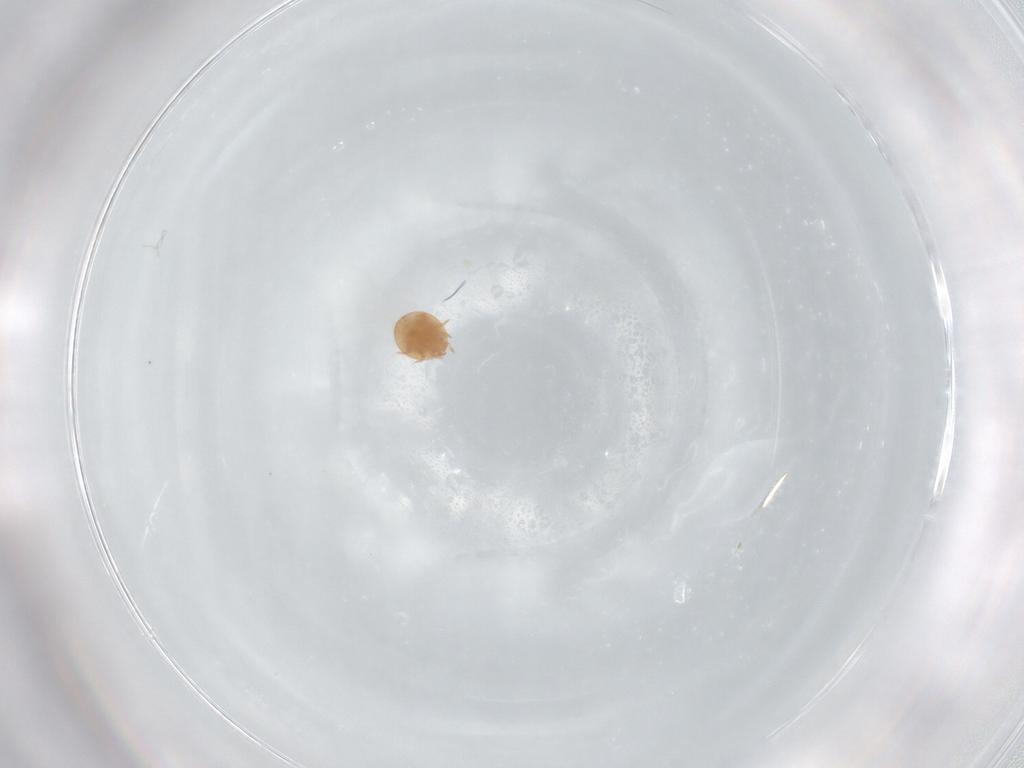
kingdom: Animalia
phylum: Arthropoda
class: Arachnida
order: Mesostigmata
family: Trematuridae
